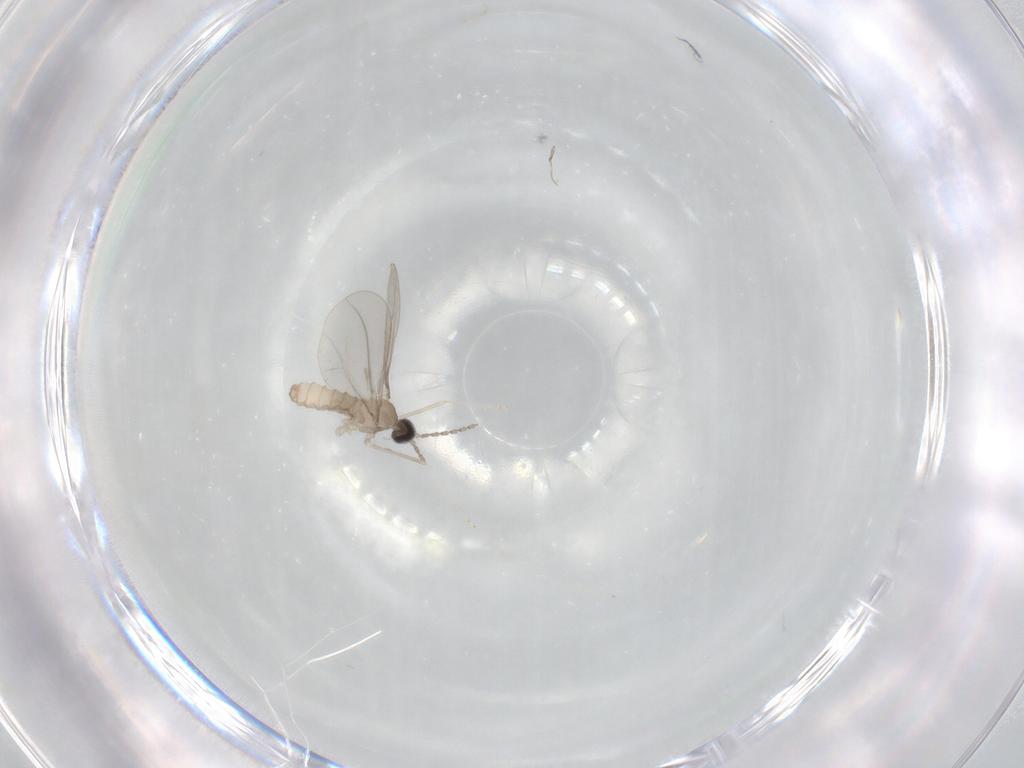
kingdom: Animalia
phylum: Arthropoda
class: Insecta
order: Diptera
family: Cecidomyiidae
